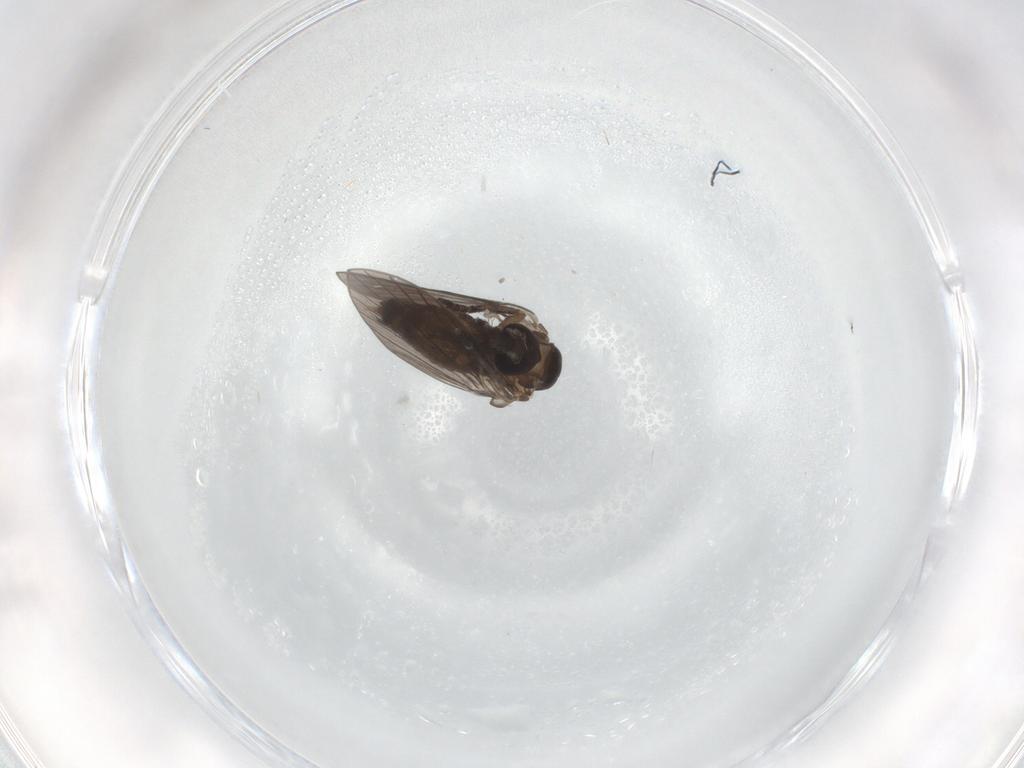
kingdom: Animalia
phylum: Arthropoda
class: Insecta
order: Diptera
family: Psychodidae
